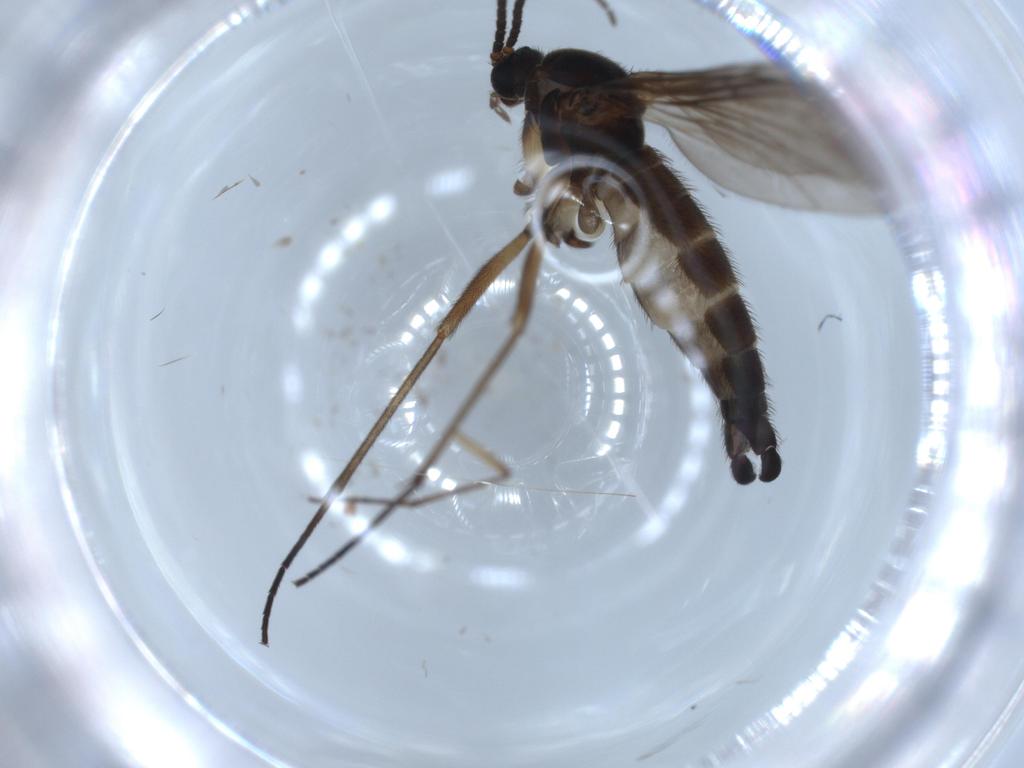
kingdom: Animalia
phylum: Arthropoda
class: Insecta
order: Diptera
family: Sciaridae
